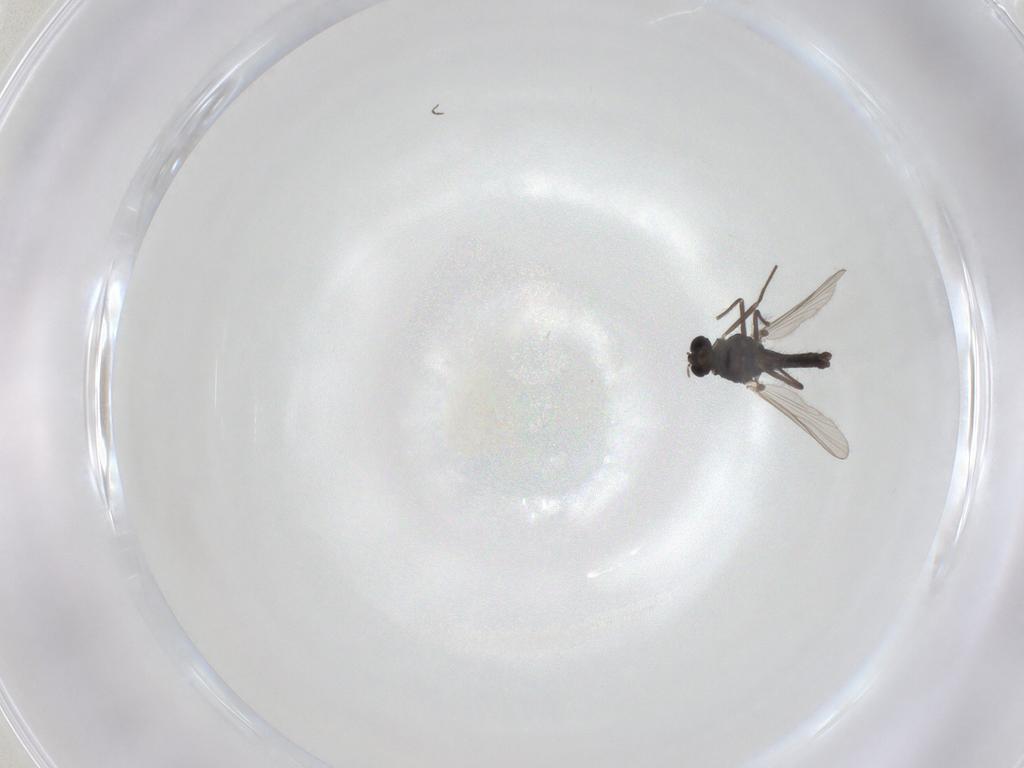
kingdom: Animalia
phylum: Arthropoda
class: Insecta
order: Diptera
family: Chironomidae
